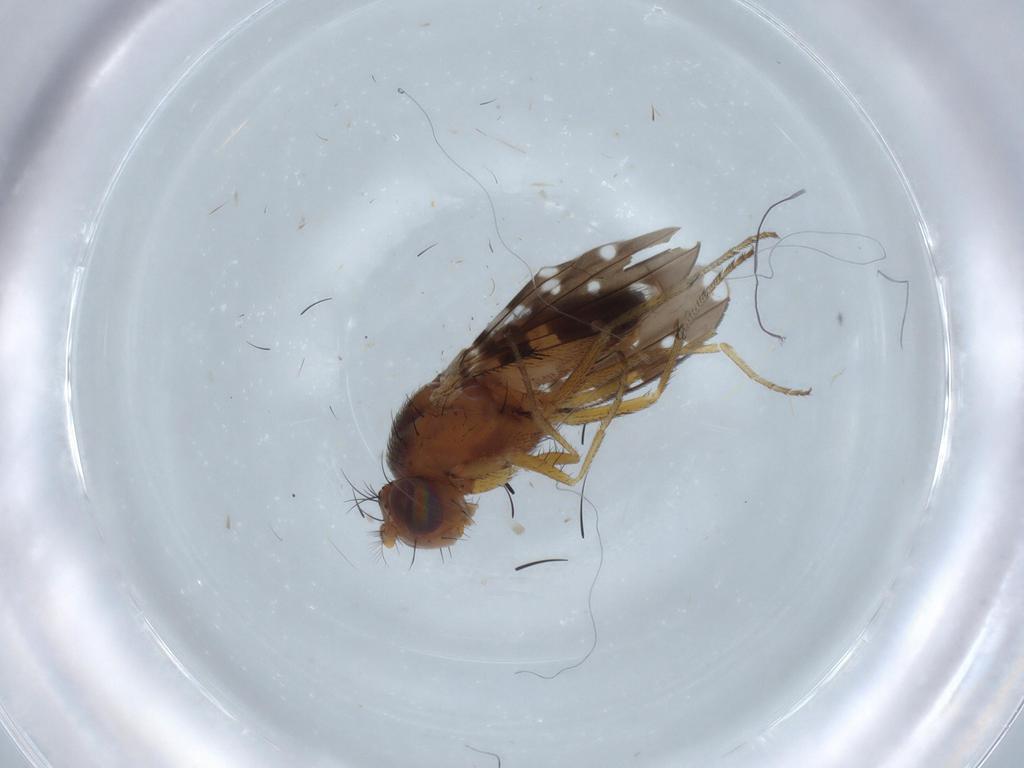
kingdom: Animalia
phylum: Arthropoda
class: Insecta
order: Diptera
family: Ephydridae
